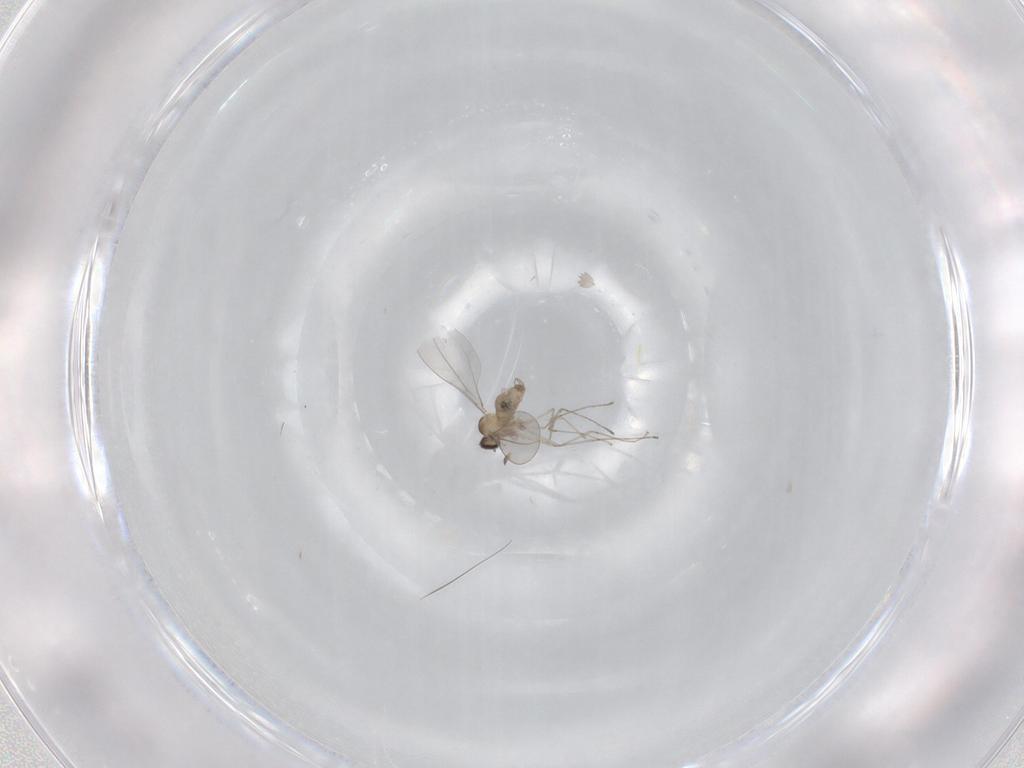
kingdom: Animalia
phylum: Arthropoda
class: Insecta
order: Diptera
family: Cecidomyiidae
